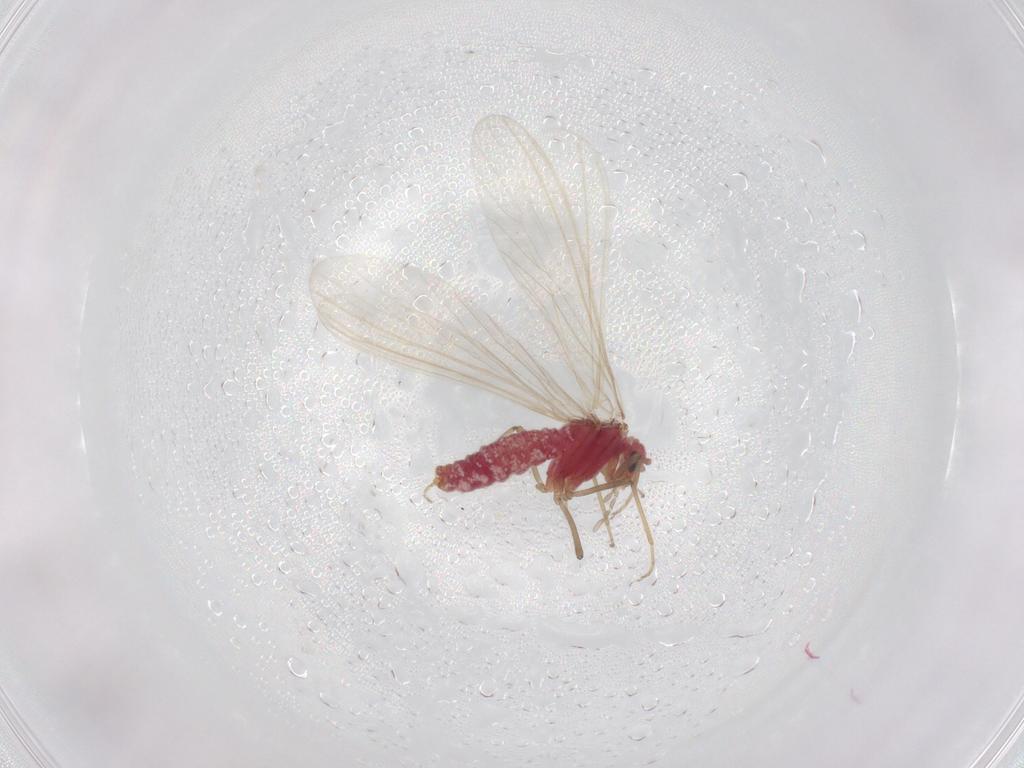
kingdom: Animalia
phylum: Arthropoda
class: Insecta
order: Neuroptera
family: Coniopterygidae
